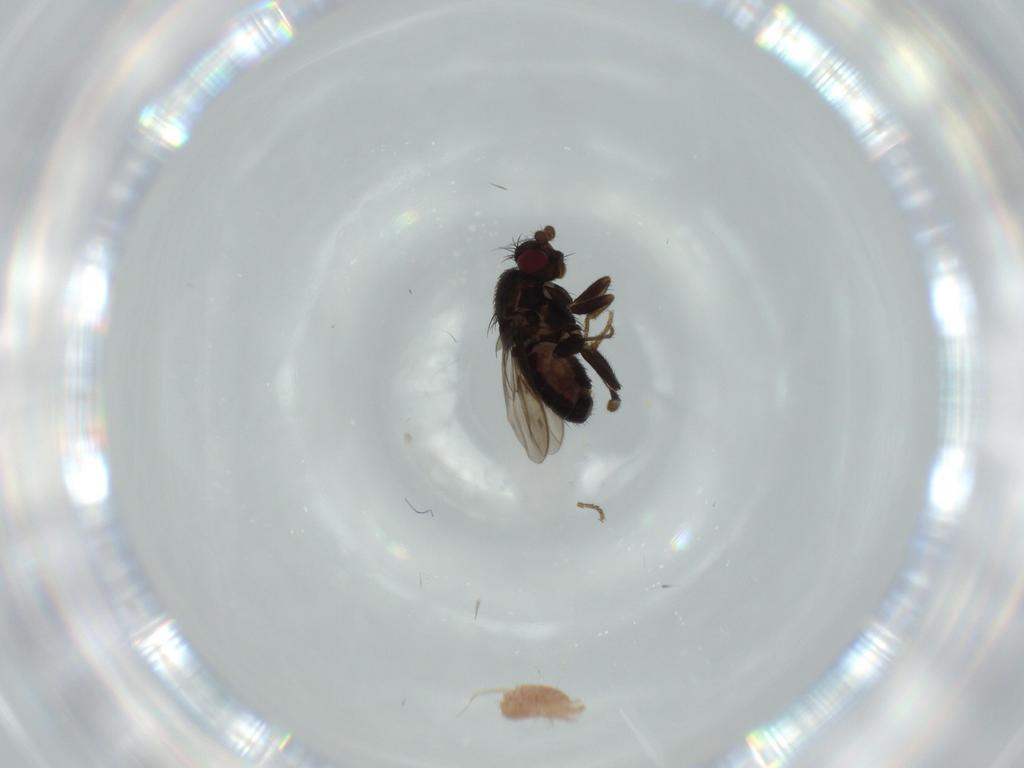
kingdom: Animalia
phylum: Arthropoda
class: Insecta
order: Diptera
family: Sphaeroceridae
